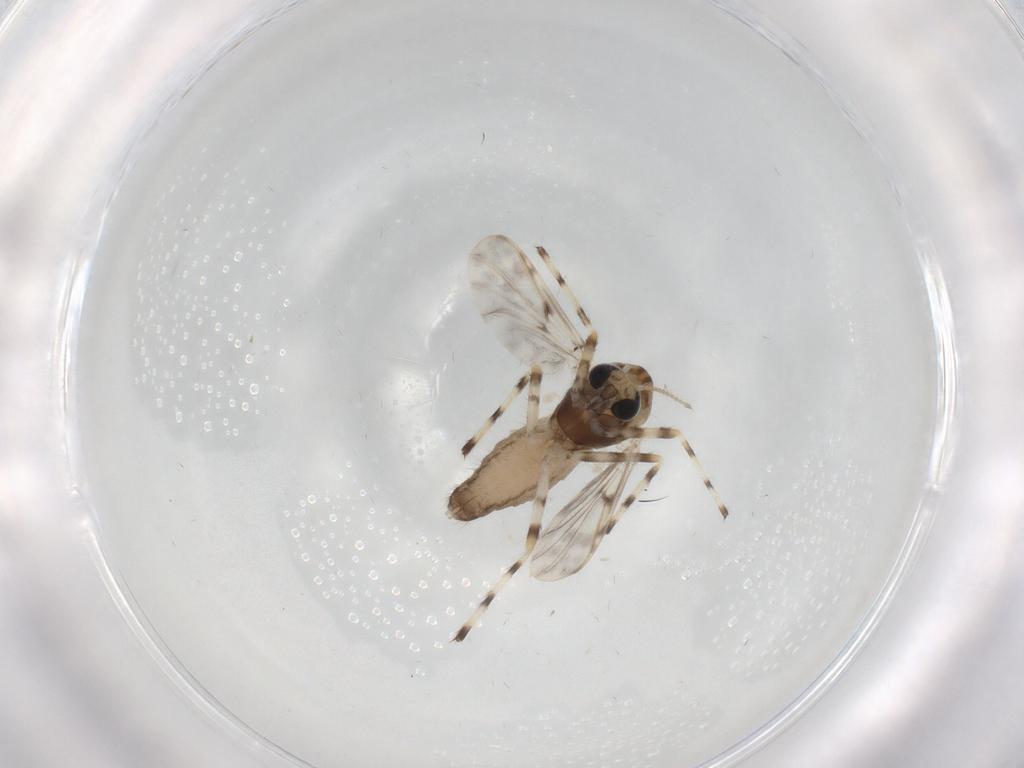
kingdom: Animalia
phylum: Arthropoda
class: Insecta
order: Diptera
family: Chironomidae
